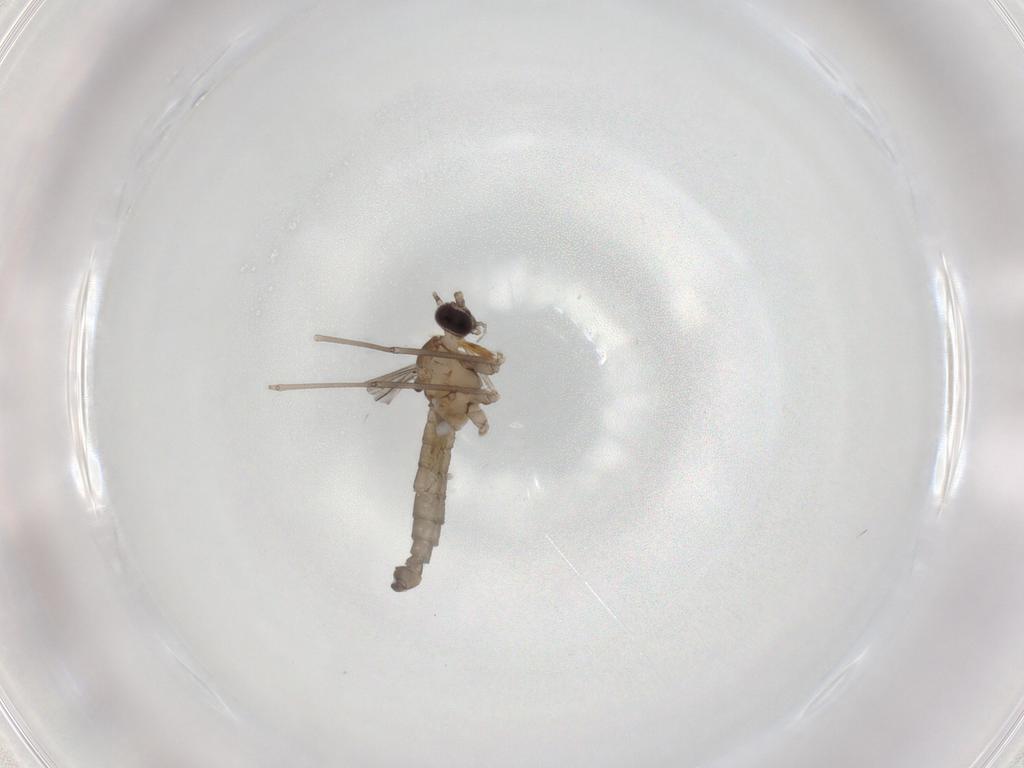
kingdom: Animalia
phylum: Arthropoda
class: Insecta
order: Diptera
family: Cecidomyiidae
